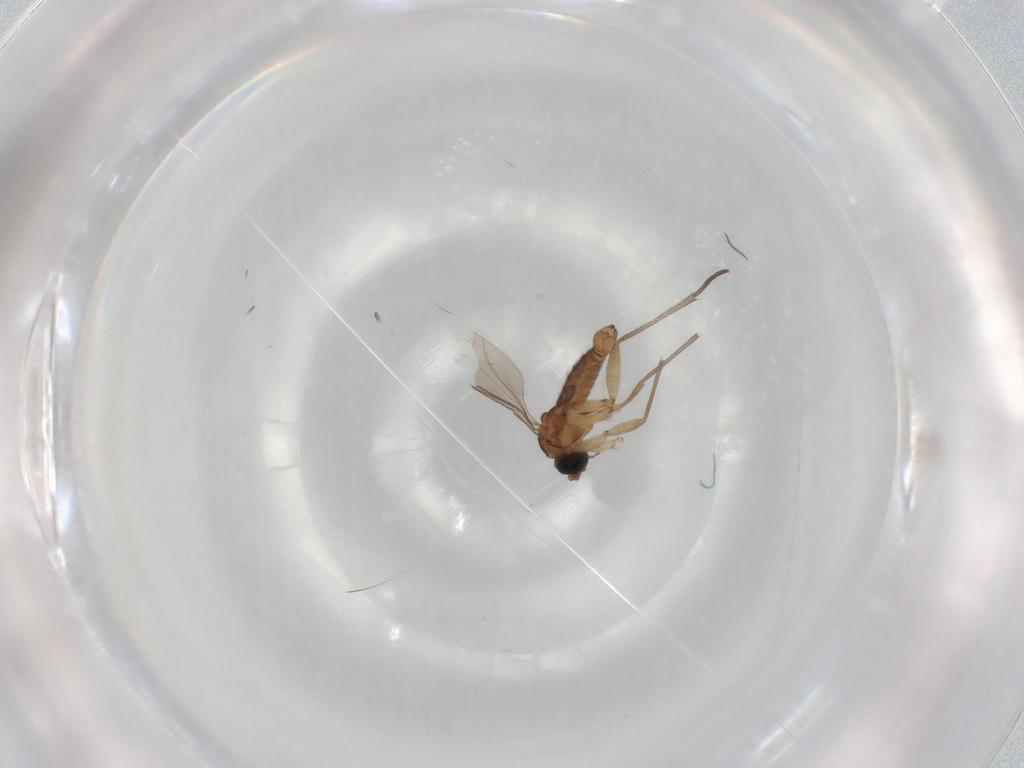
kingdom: Animalia
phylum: Arthropoda
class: Insecta
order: Diptera
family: Sciaridae
